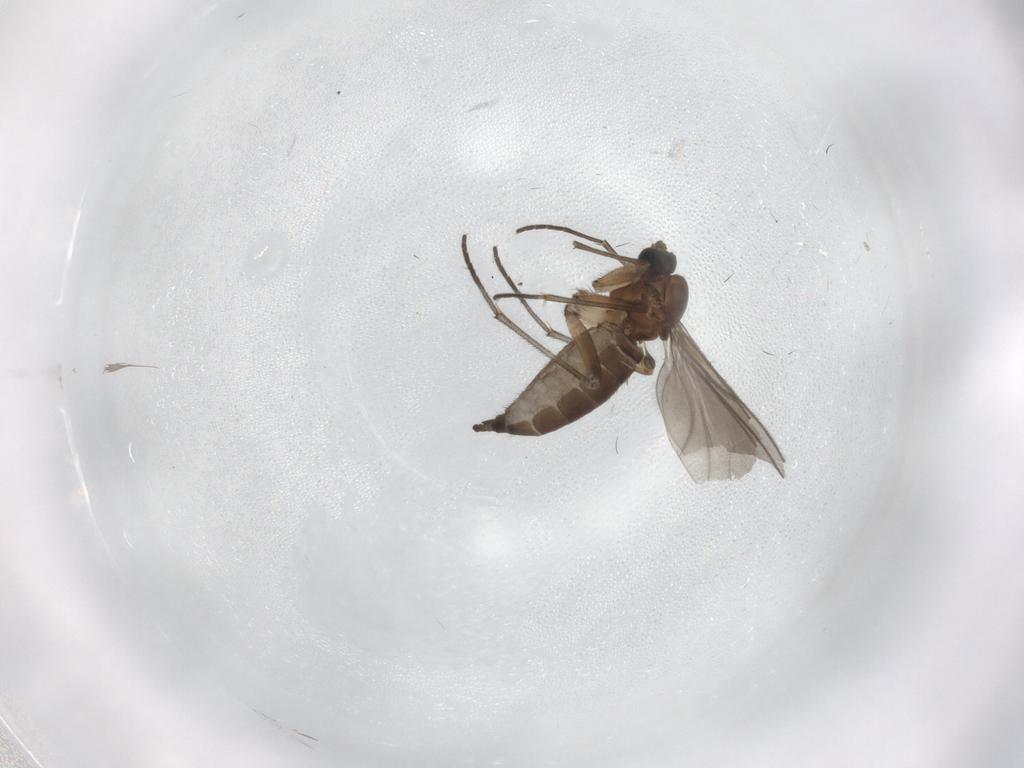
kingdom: Animalia
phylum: Arthropoda
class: Insecta
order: Diptera
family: Cecidomyiidae
